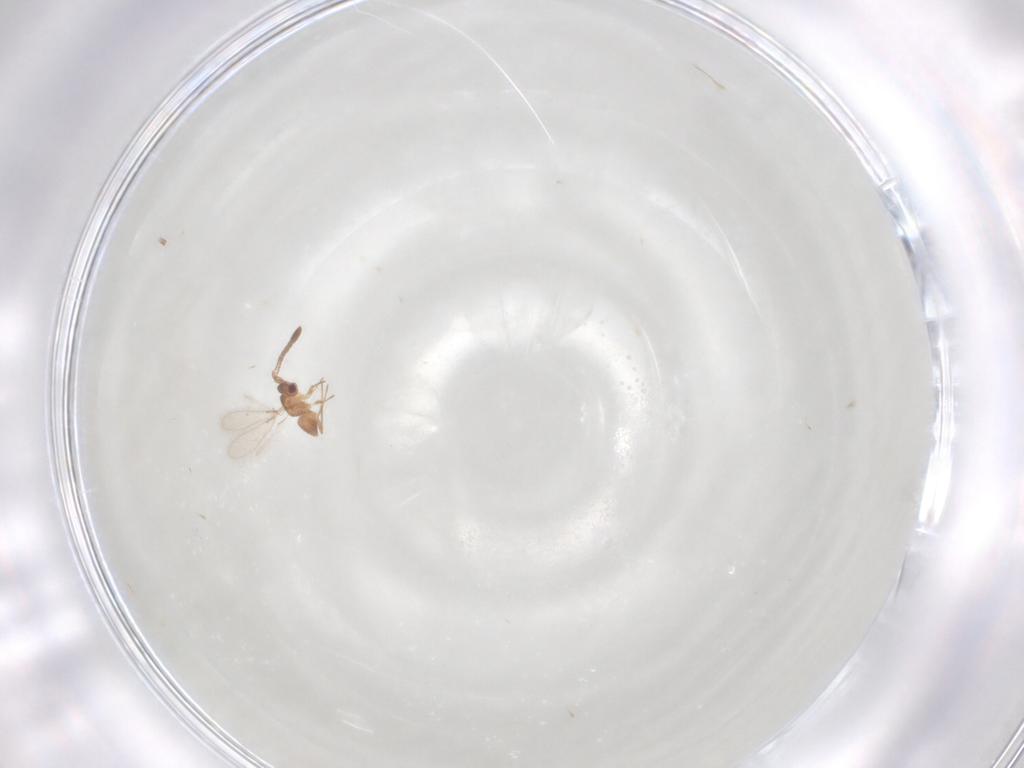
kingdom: Animalia
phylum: Arthropoda
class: Insecta
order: Hymenoptera
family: Mymaridae
